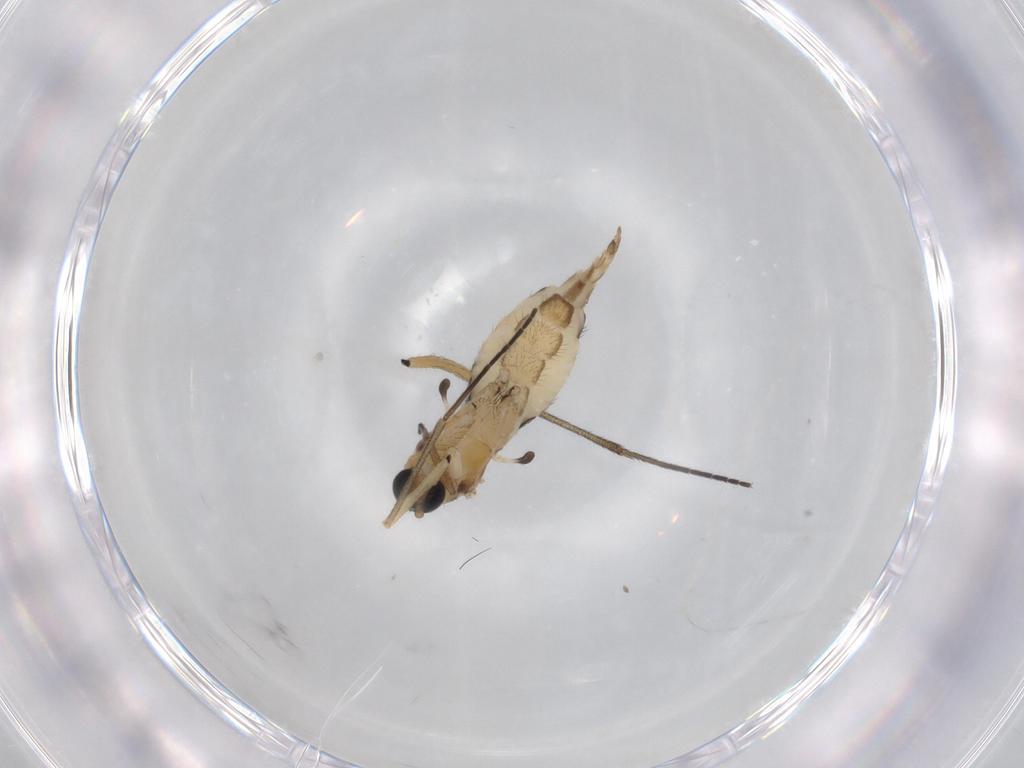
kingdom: Animalia
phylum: Arthropoda
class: Insecta
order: Diptera
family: Sciaridae
